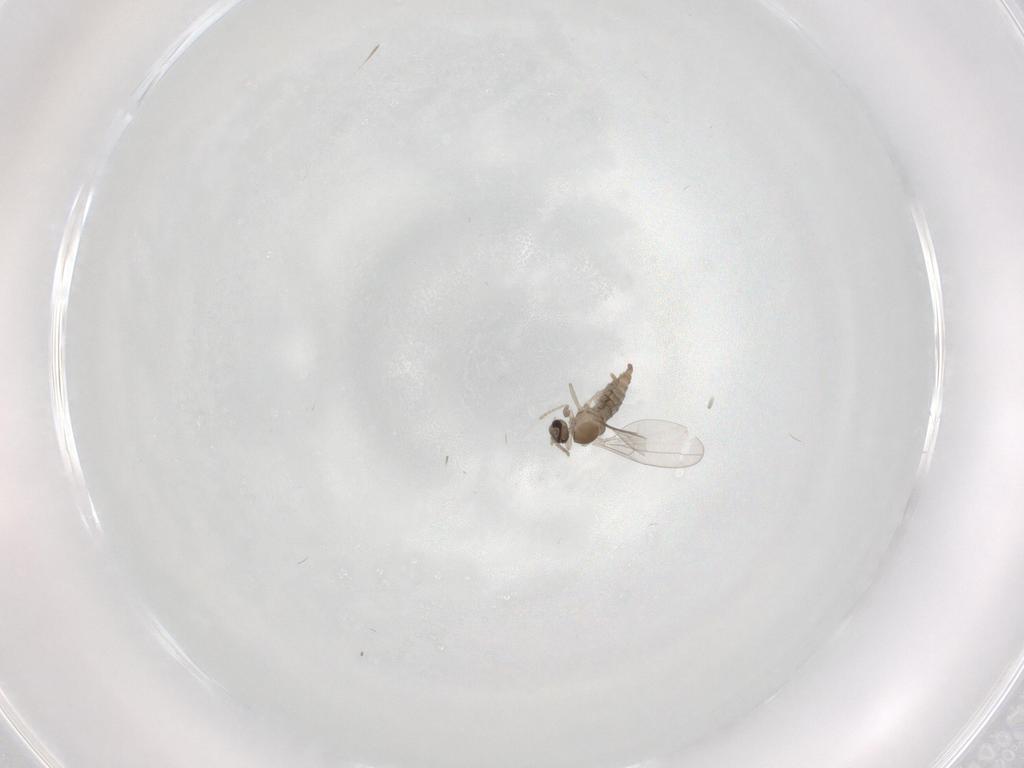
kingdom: Animalia
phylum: Arthropoda
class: Insecta
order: Diptera
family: Cecidomyiidae
